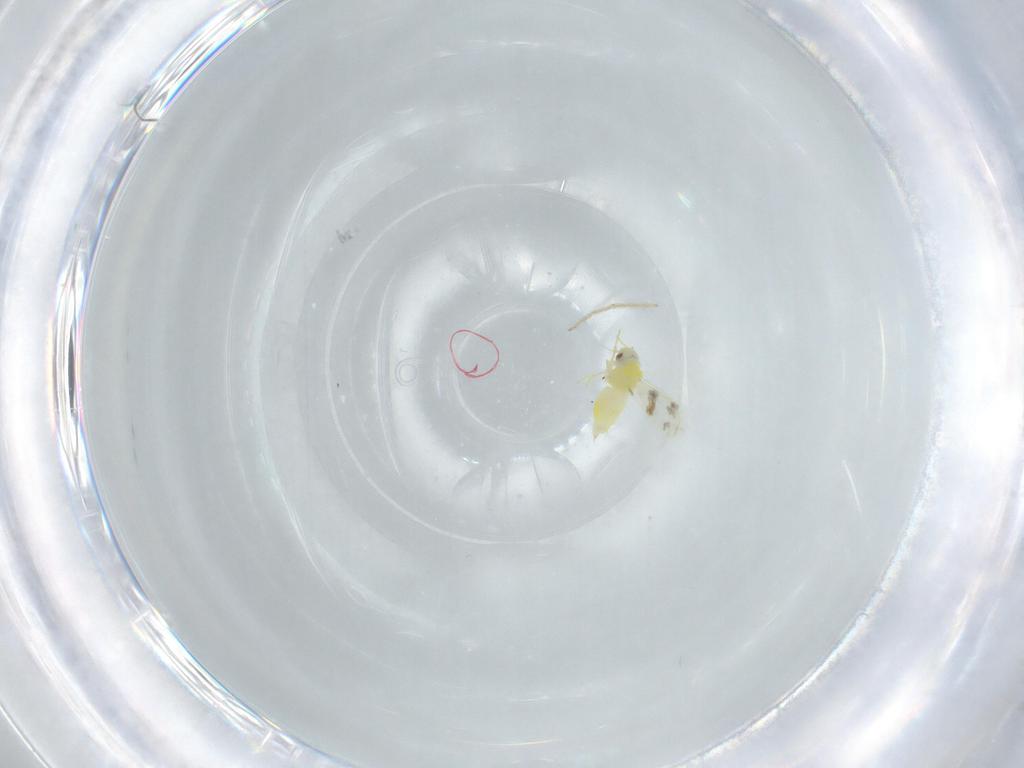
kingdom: Animalia
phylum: Arthropoda
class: Insecta
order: Hemiptera
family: Aleyrodidae
